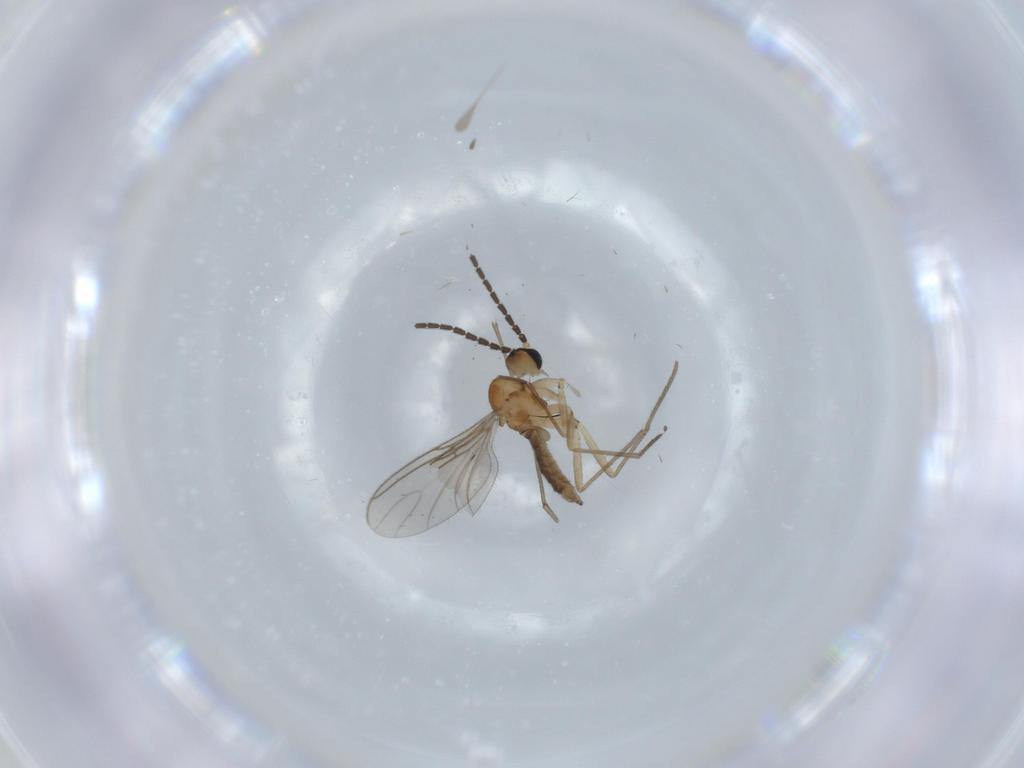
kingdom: Animalia
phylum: Arthropoda
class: Insecta
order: Diptera
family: Sciaridae
